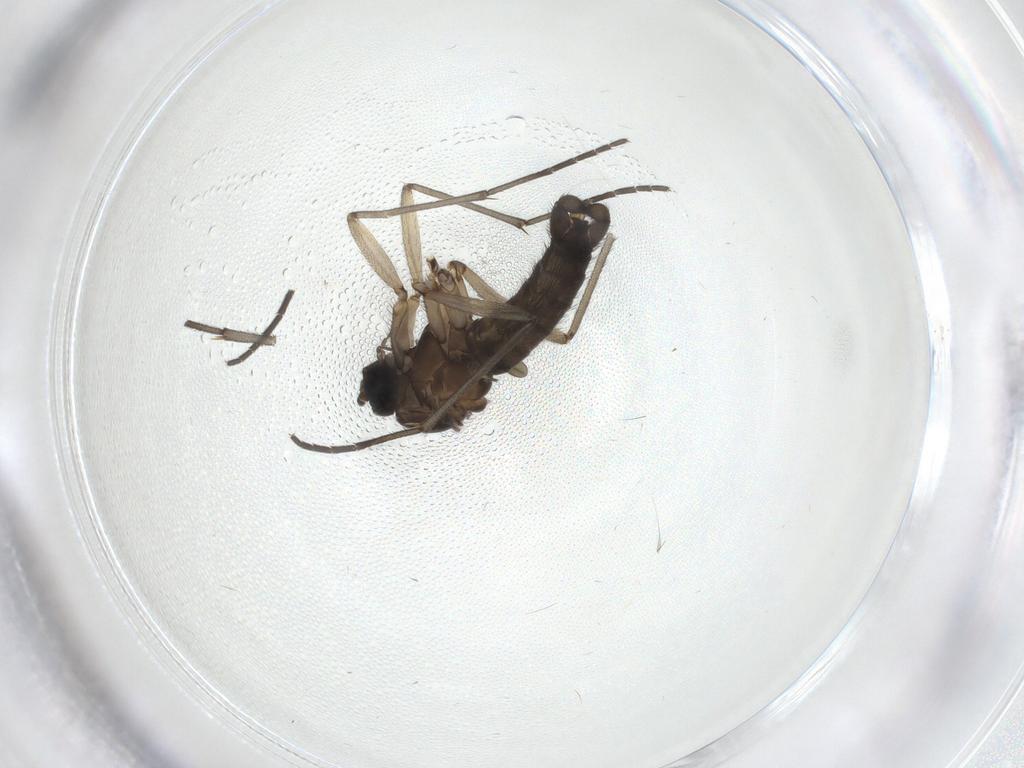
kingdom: Animalia
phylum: Arthropoda
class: Insecta
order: Diptera
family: Sciaridae
